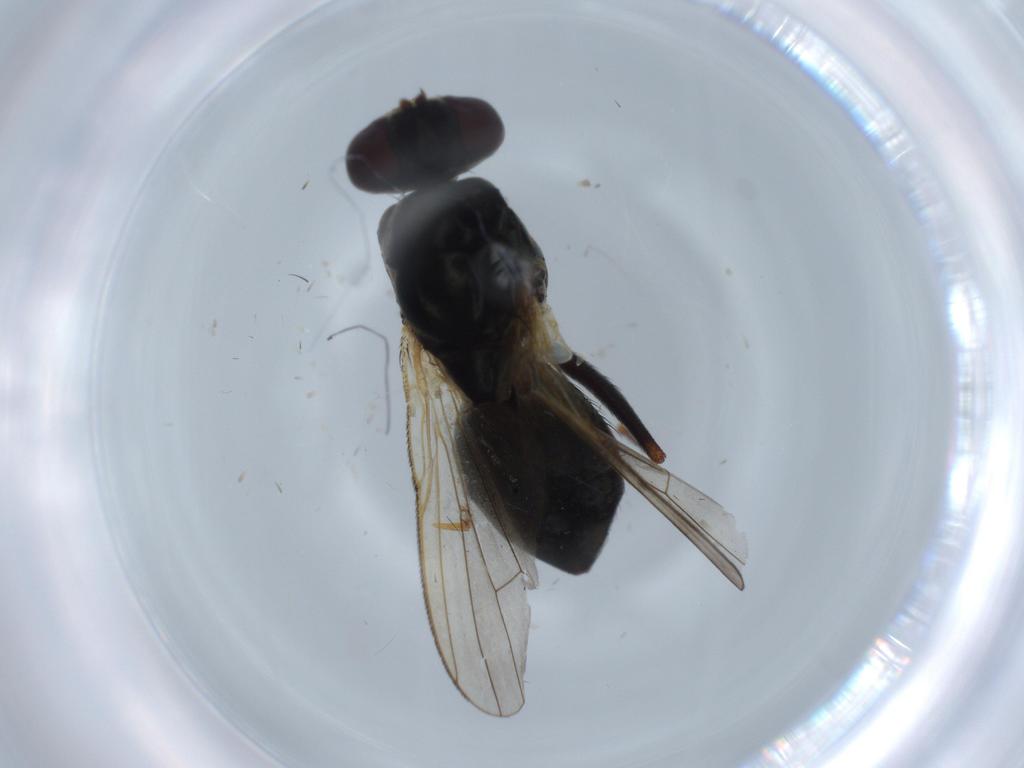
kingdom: Animalia
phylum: Arthropoda
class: Insecta
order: Diptera
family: Muscidae
